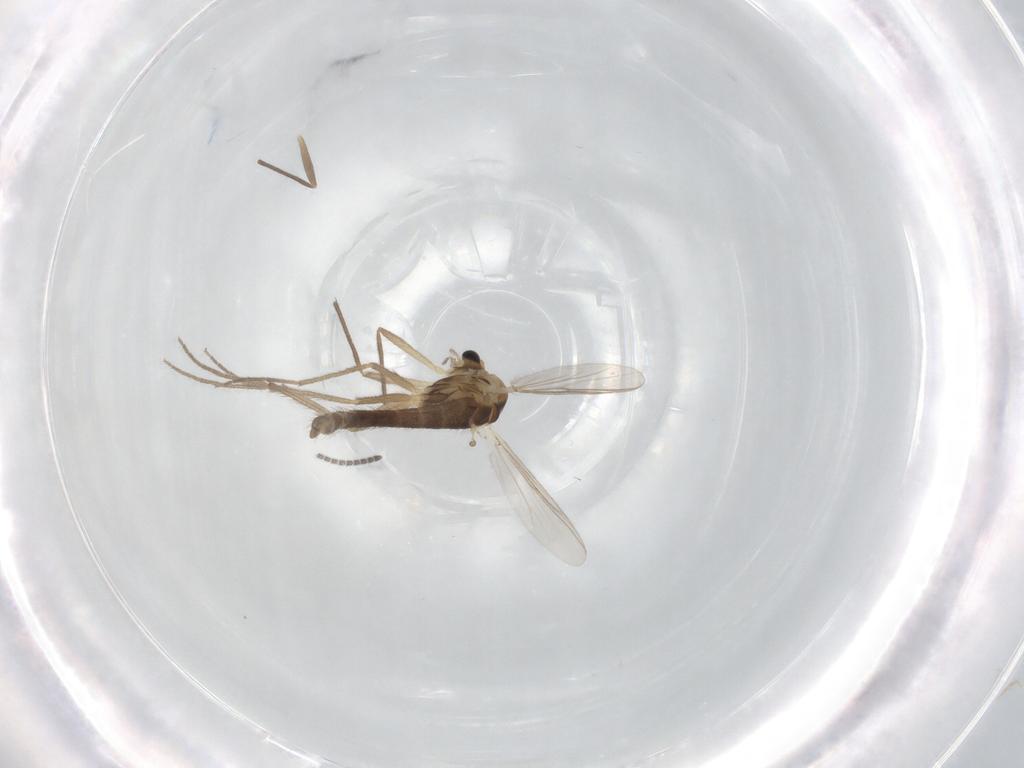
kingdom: Animalia
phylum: Arthropoda
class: Insecta
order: Diptera
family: Chironomidae
